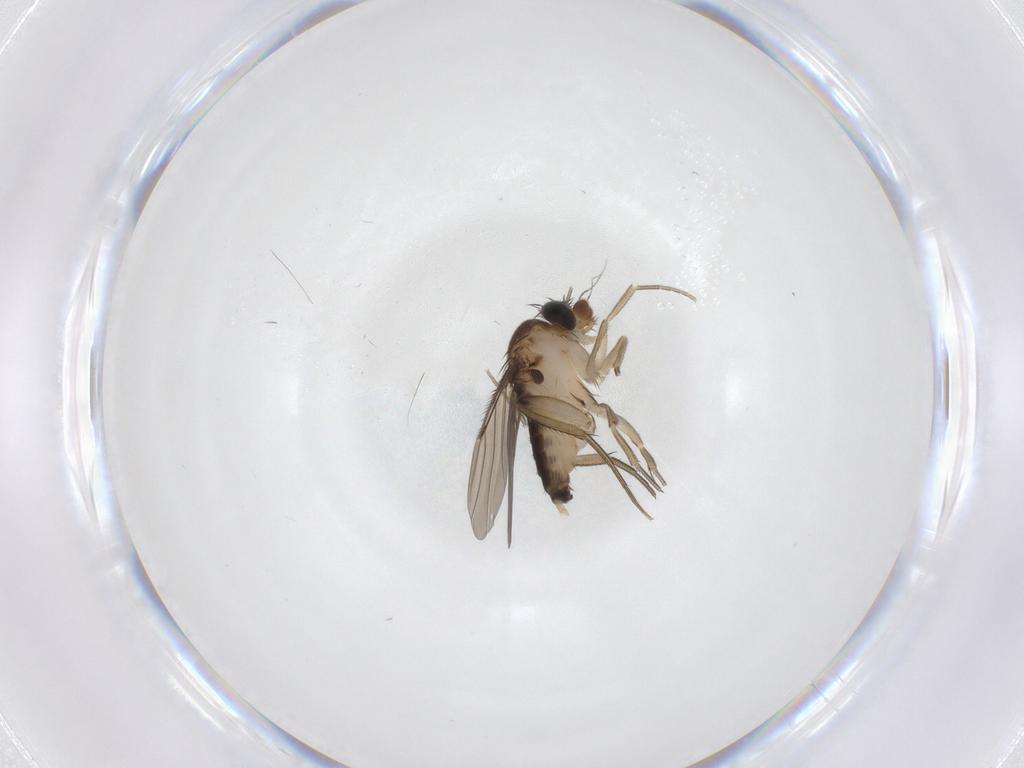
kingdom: Animalia
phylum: Arthropoda
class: Insecta
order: Diptera
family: Phoridae
